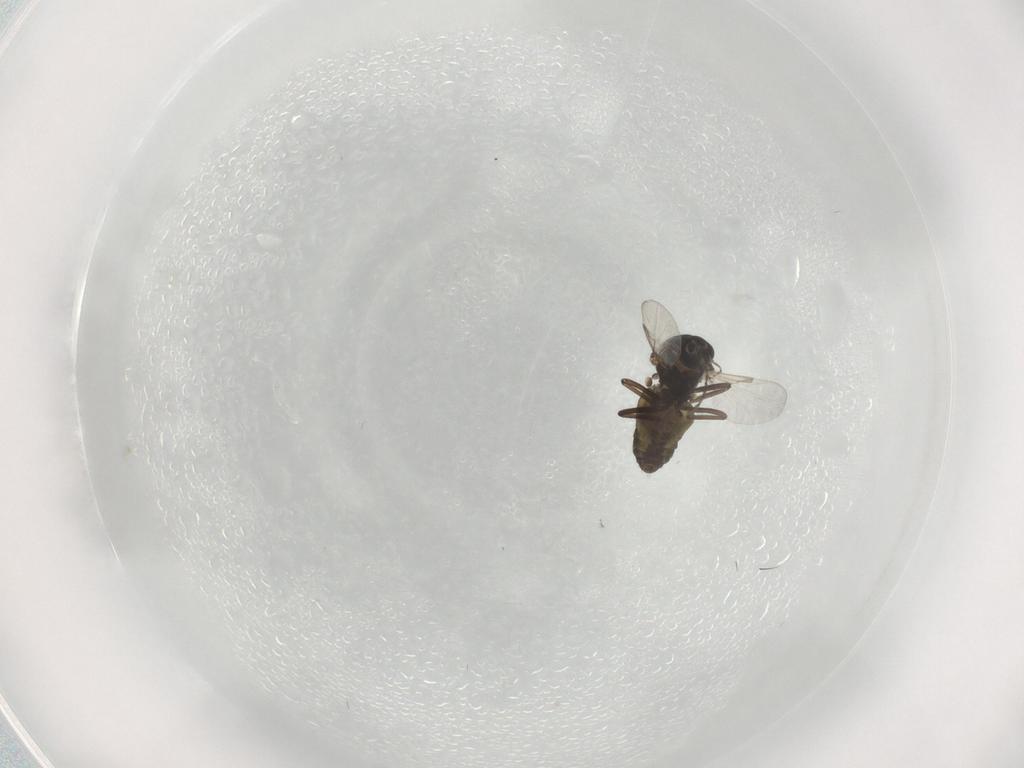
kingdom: Animalia
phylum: Arthropoda
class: Insecta
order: Diptera
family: Ceratopogonidae
